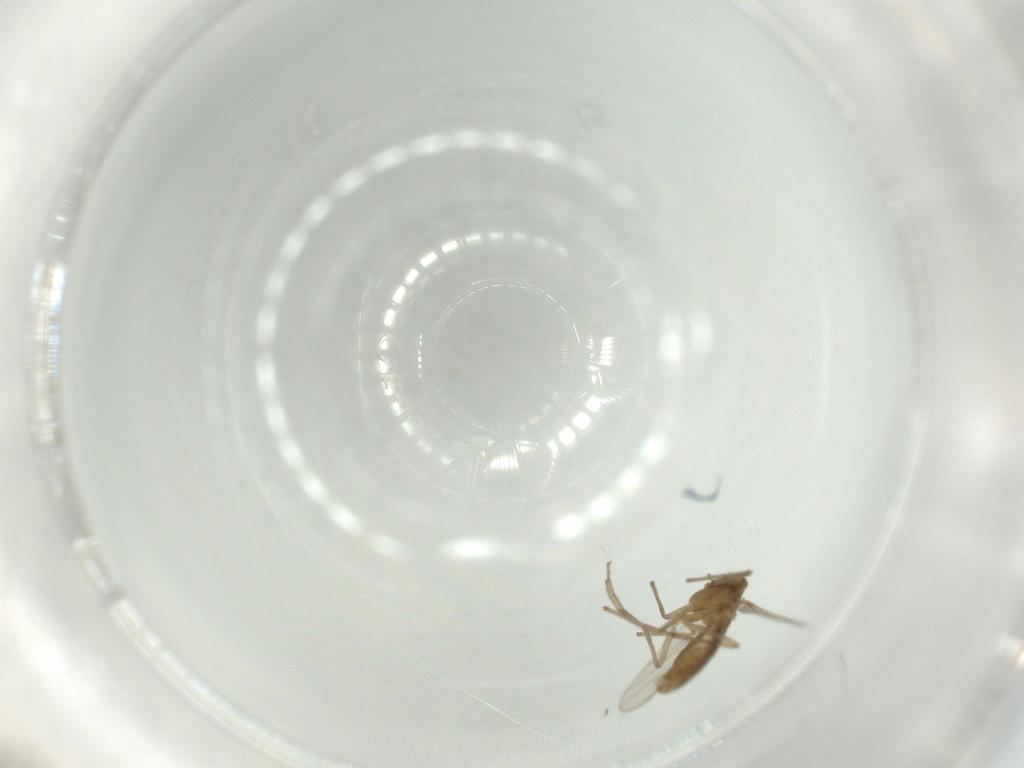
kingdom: Animalia
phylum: Arthropoda
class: Insecta
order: Diptera
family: Chironomidae
